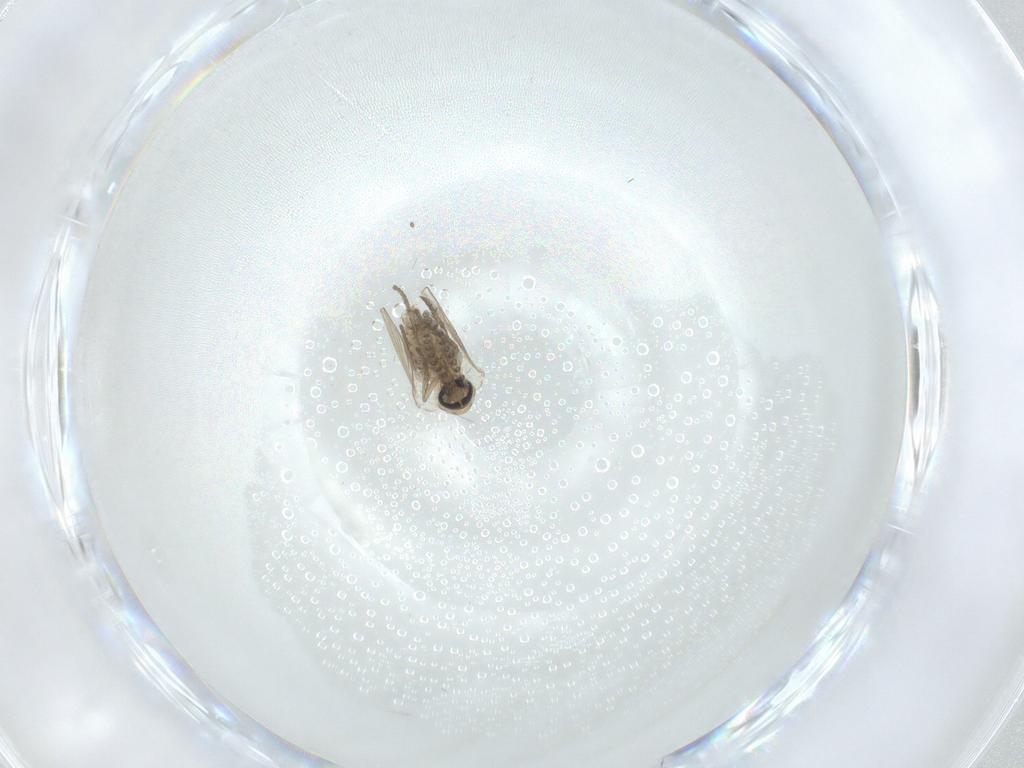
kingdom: Animalia
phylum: Arthropoda
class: Insecta
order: Diptera
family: Psychodidae
